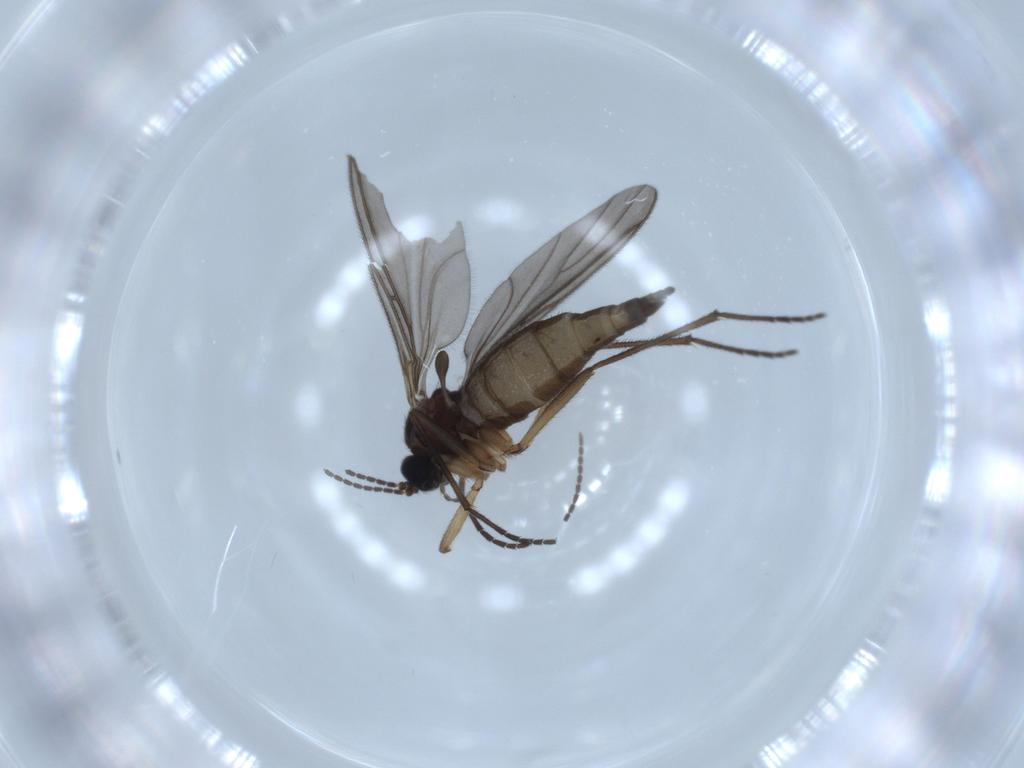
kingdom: Animalia
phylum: Arthropoda
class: Insecta
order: Diptera
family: Sciaridae
